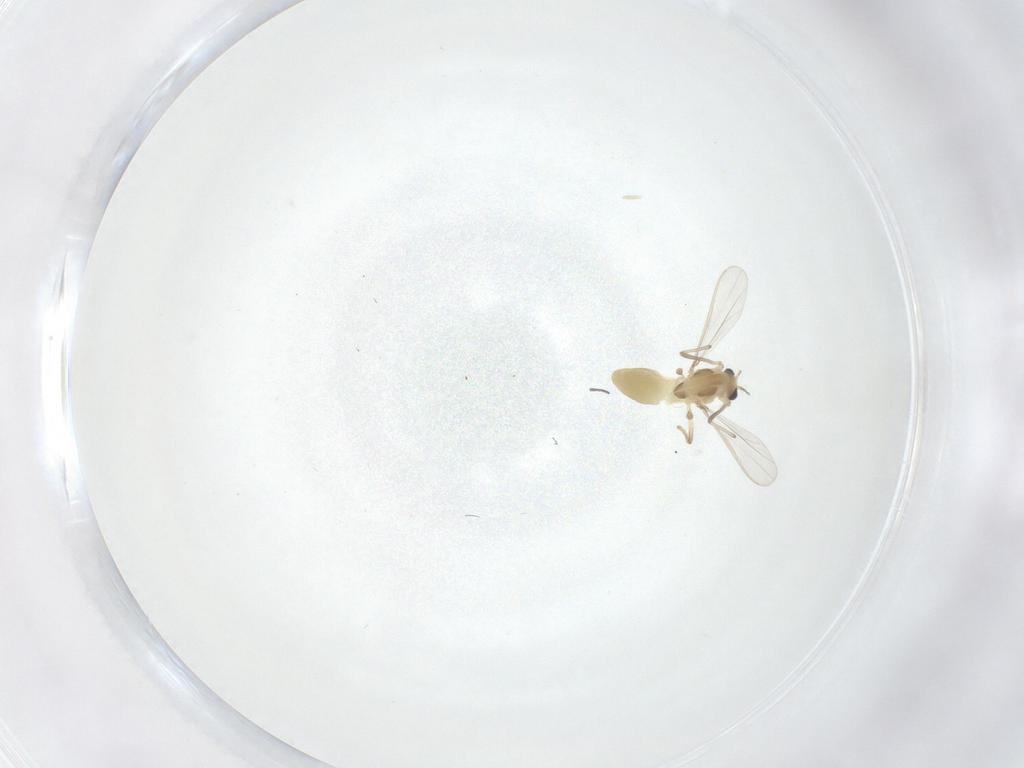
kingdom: Animalia
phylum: Arthropoda
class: Insecta
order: Diptera
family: Chironomidae
